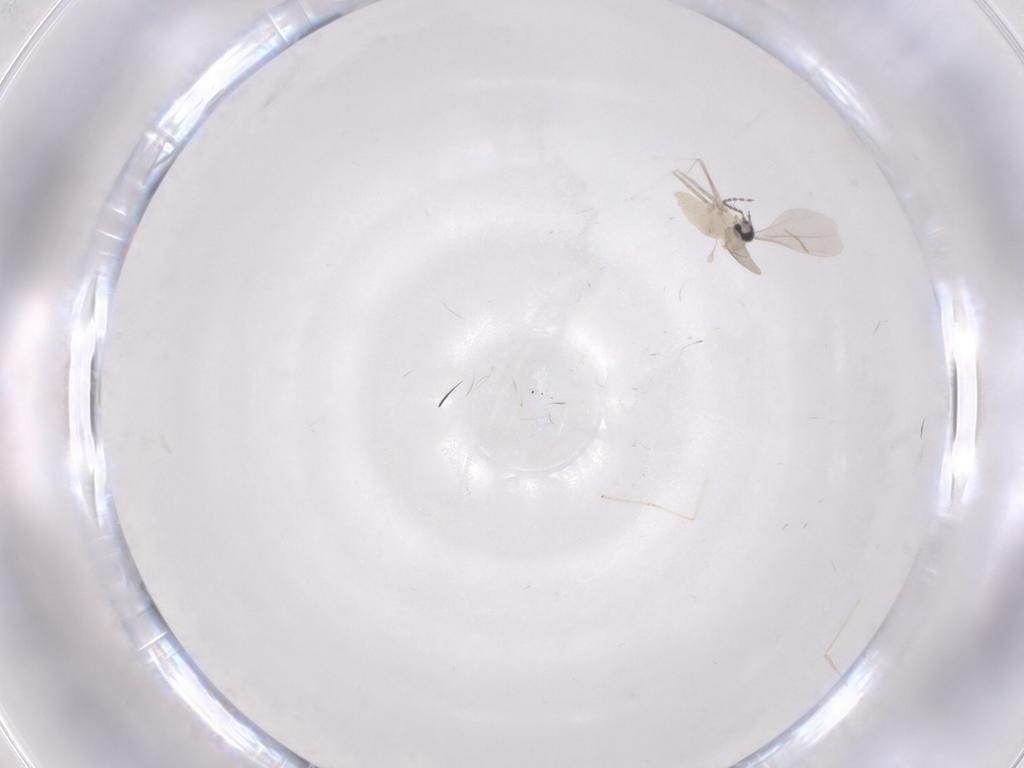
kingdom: Animalia
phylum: Arthropoda
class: Insecta
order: Diptera
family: Cecidomyiidae
